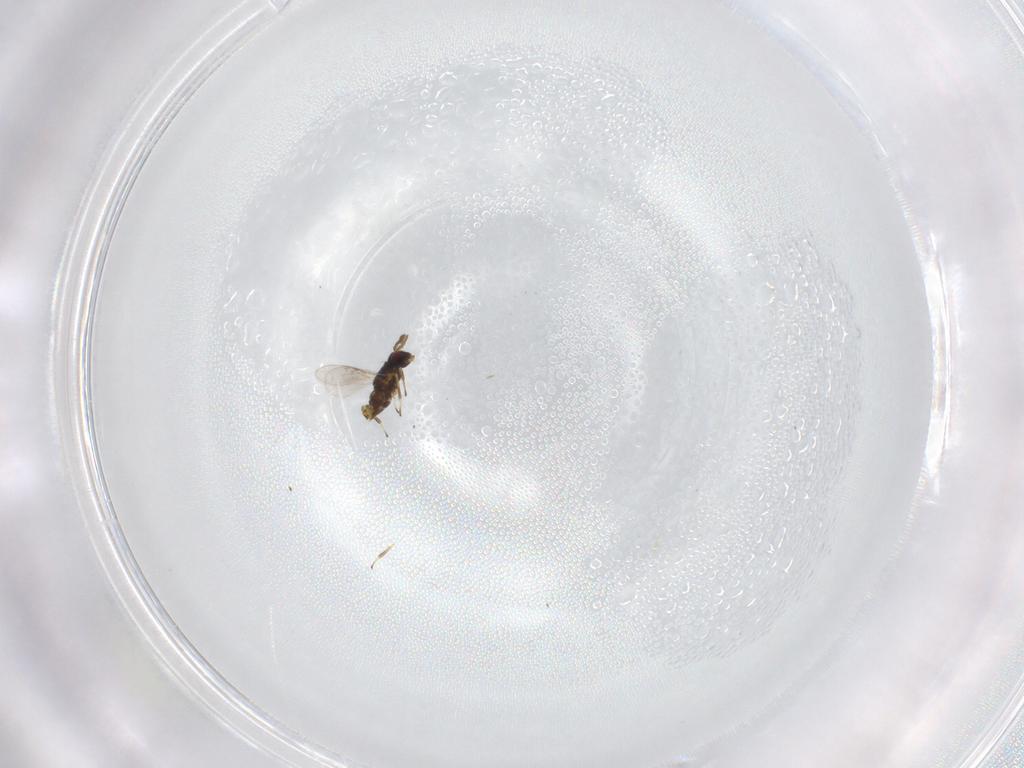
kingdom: Animalia
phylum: Arthropoda
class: Insecta
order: Hymenoptera
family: Encyrtidae
